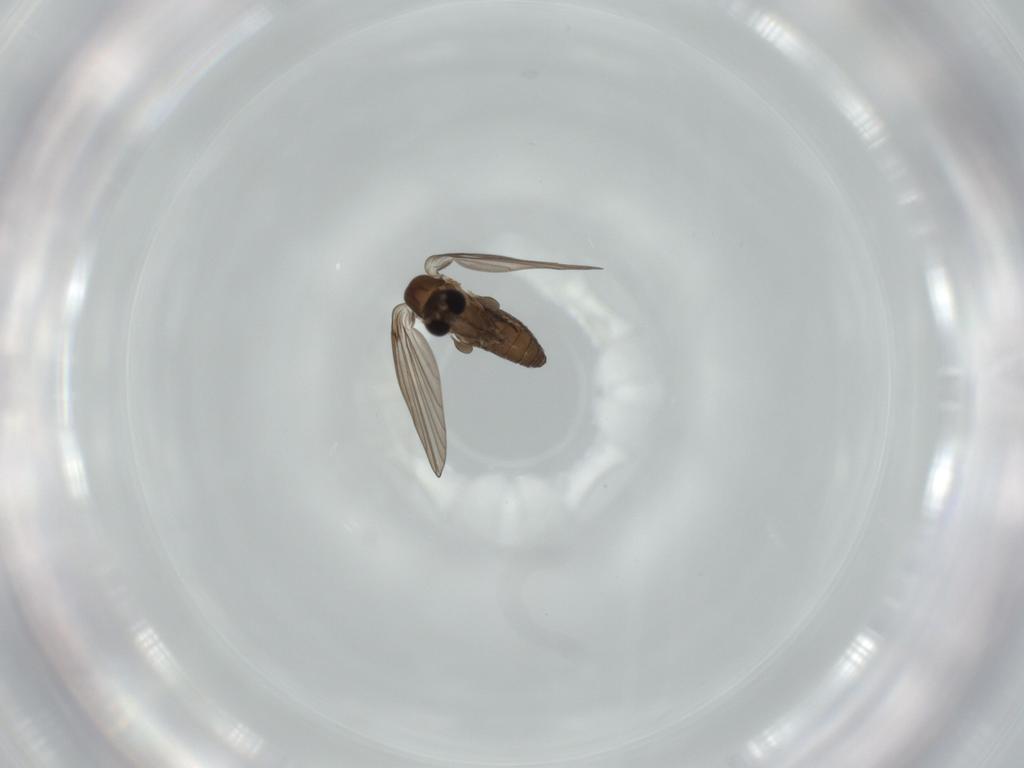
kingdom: Animalia
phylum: Arthropoda
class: Insecta
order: Diptera
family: Psychodidae
